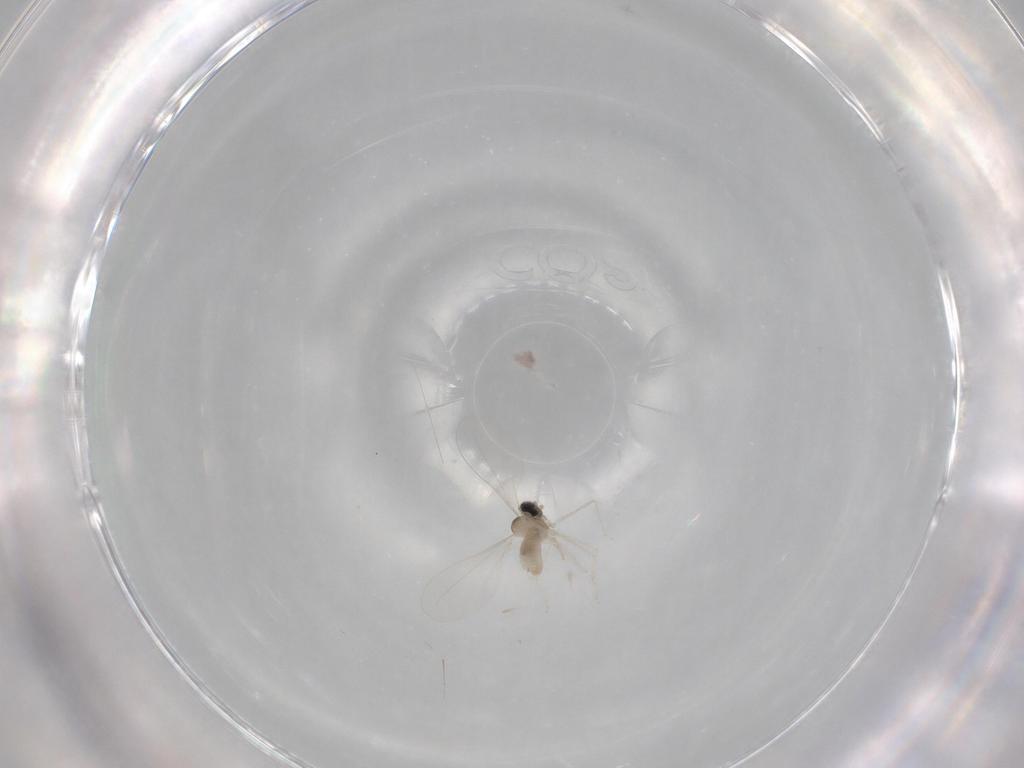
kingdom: Animalia
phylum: Arthropoda
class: Insecta
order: Diptera
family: Cecidomyiidae
